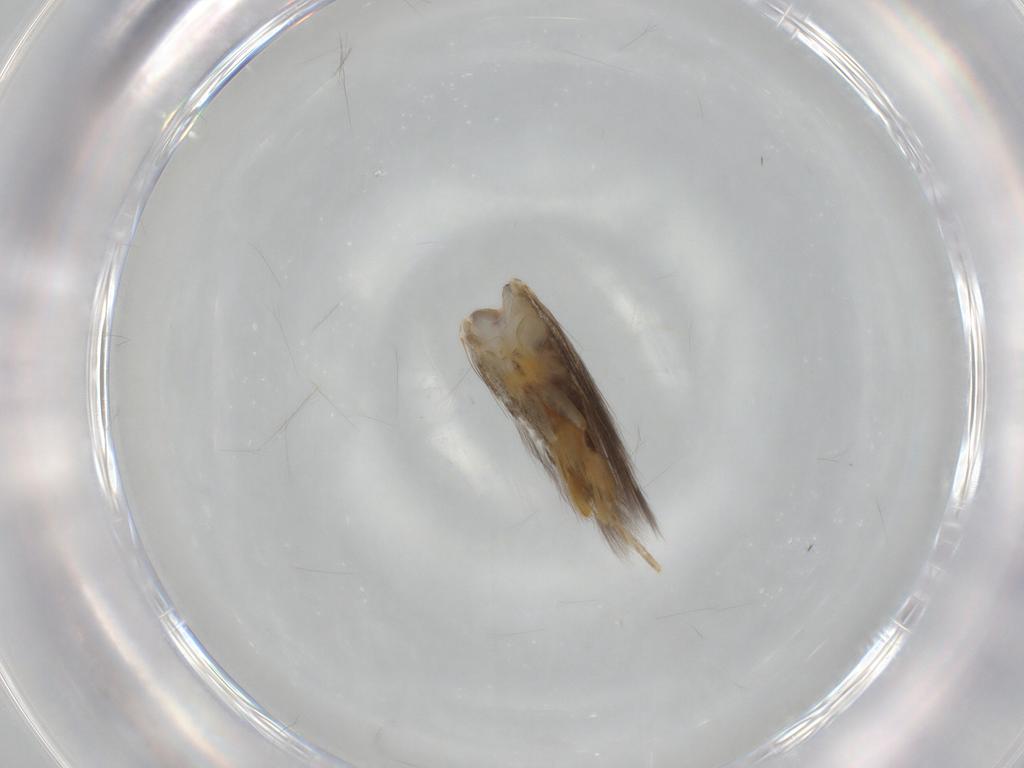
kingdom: Animalia
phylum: Arthropoda
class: Insecta
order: Lepidoptera
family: Elachistidae
